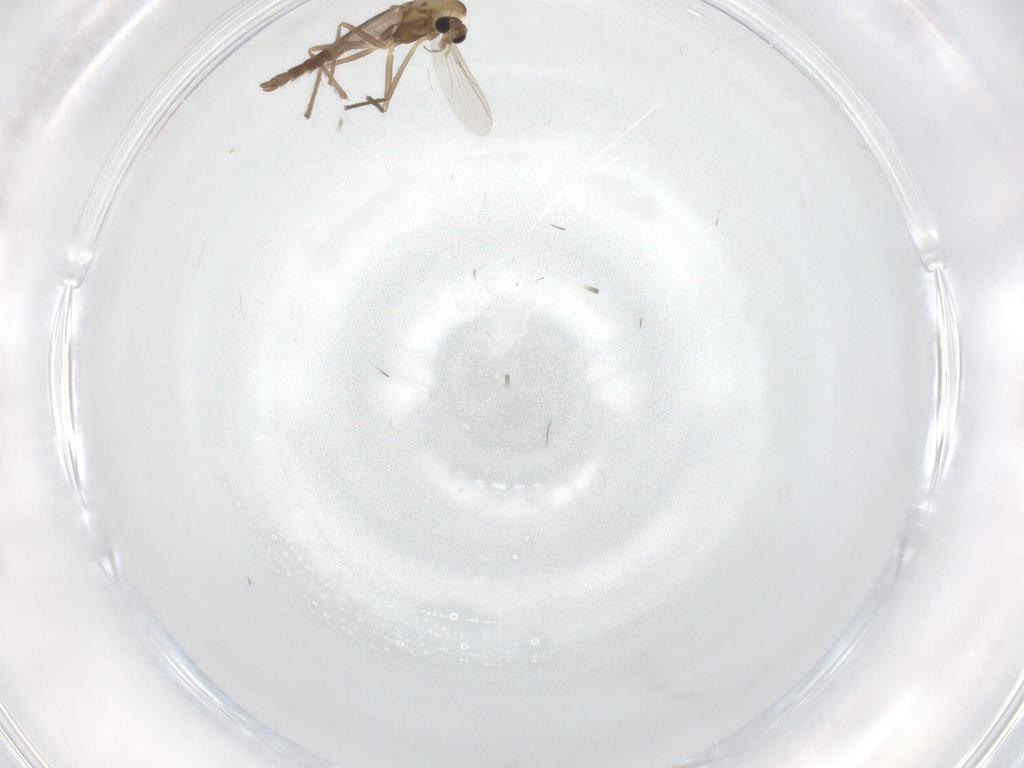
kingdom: Animalia
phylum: Arthropoda
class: Insecta
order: Diptera
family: Chironomidae
